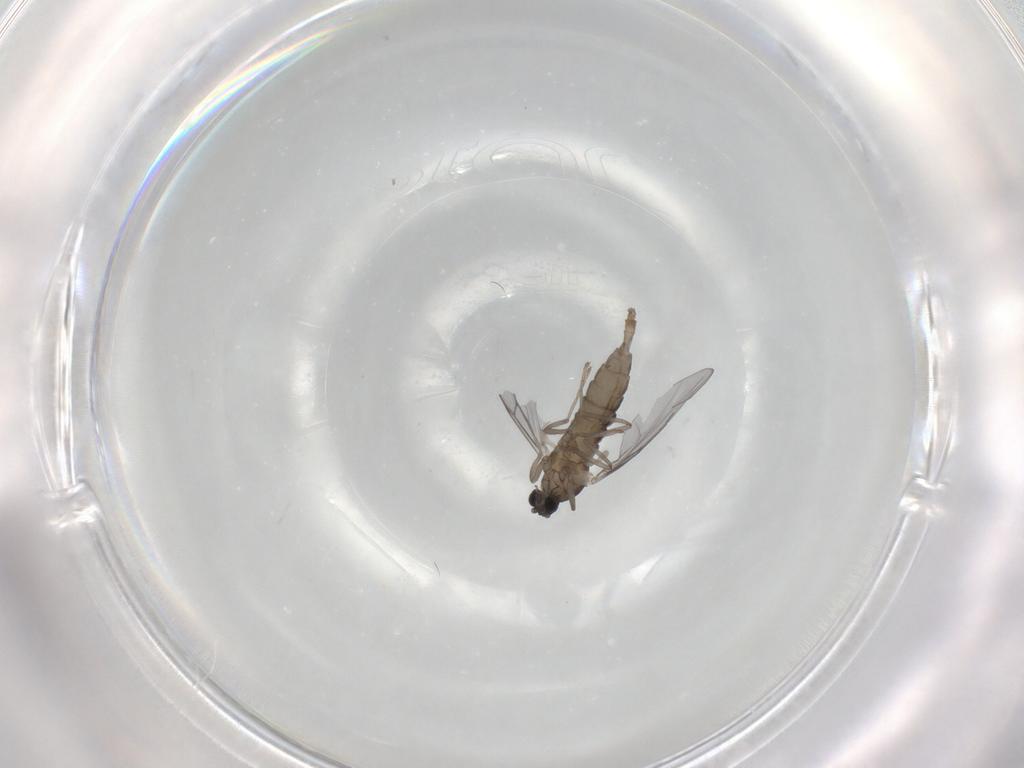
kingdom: Animalia
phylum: Arthropoda
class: Insecta
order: Diptera
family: Cecidomyiidae
